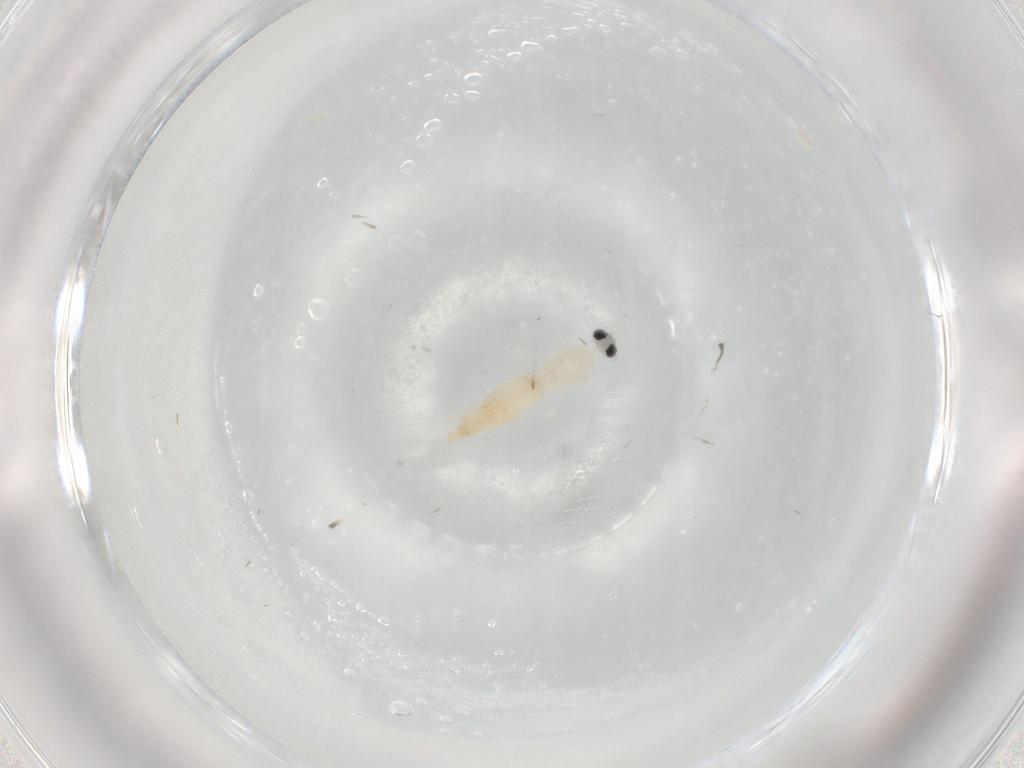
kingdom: Animalia
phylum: Arthropoda
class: Insecta
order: Diptera
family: Cecidomyiidae
